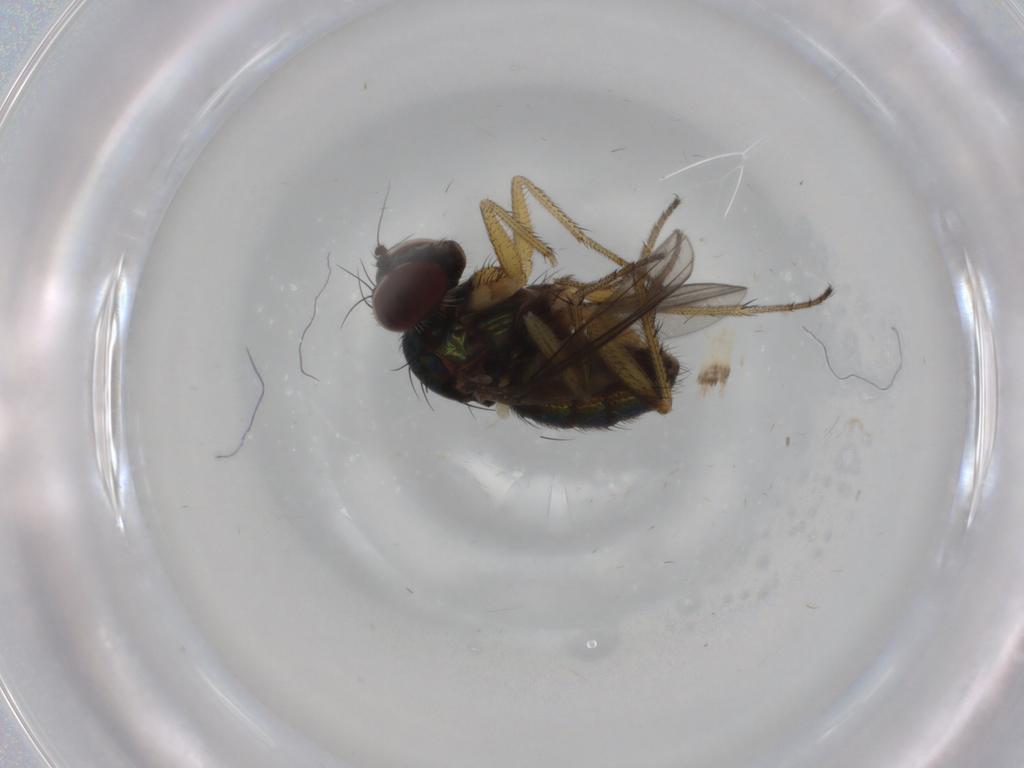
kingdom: Animalia
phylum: Arthropoda
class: Insecta
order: Diptera
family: Dolichopodidae
